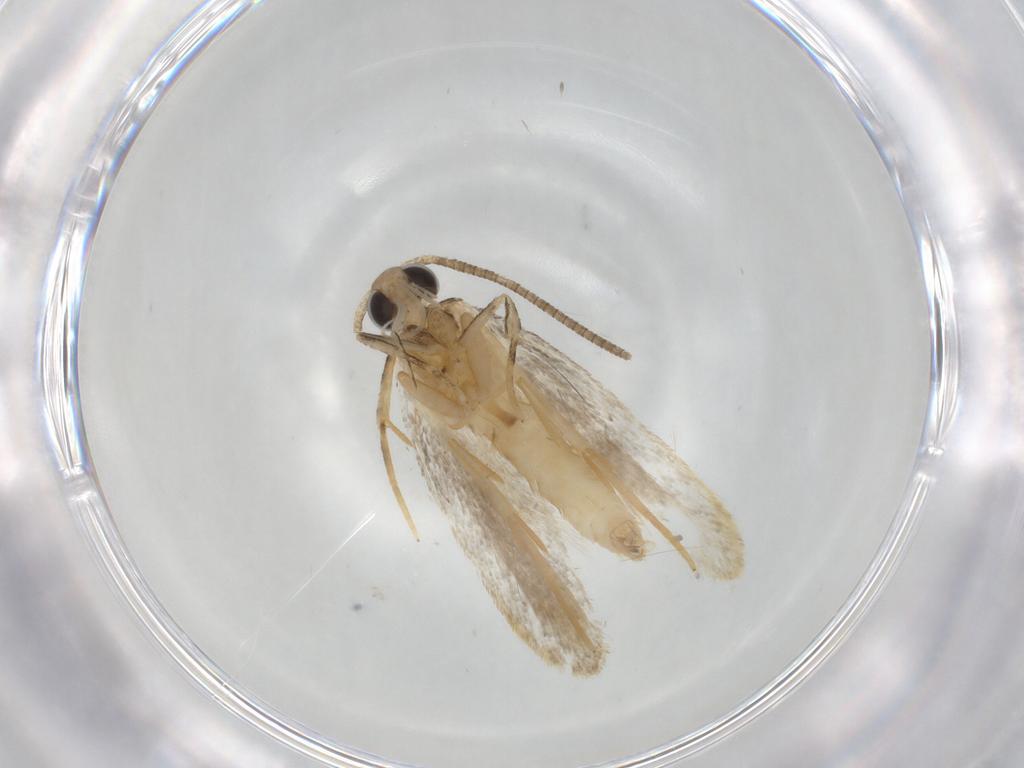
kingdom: Animalia
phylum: Arthropoda
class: Insecta
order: Lepidoptera
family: Autostichidae
